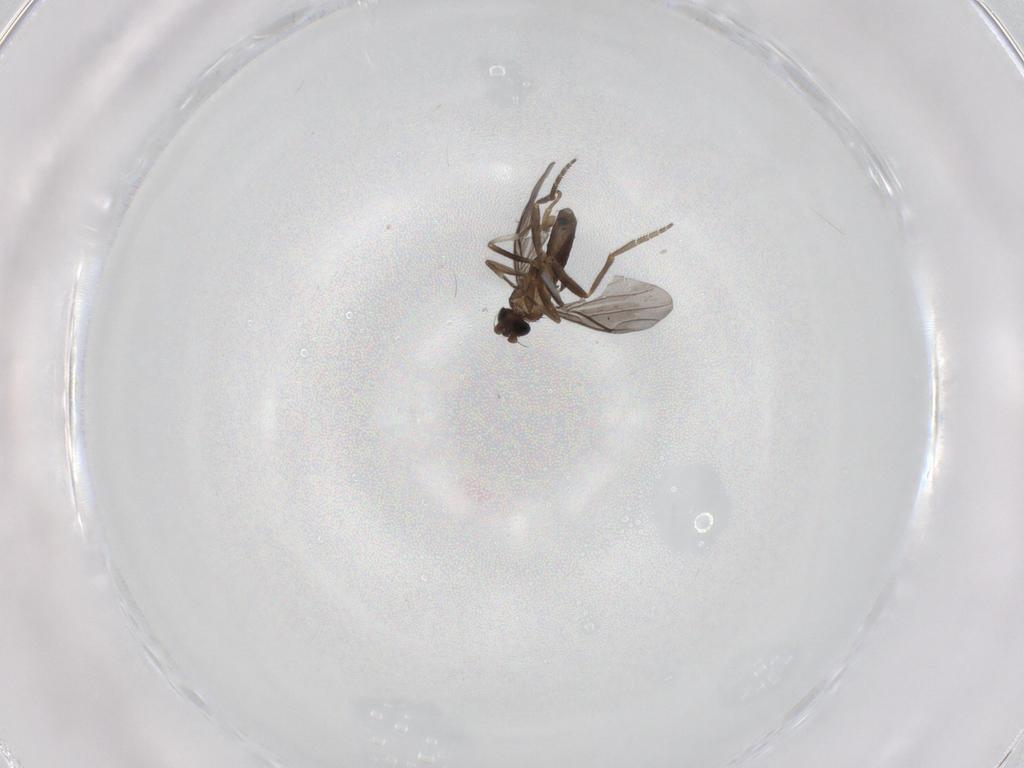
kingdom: Animalia
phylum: Arthropoda
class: Insecta
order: Diptera
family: Phoridae
